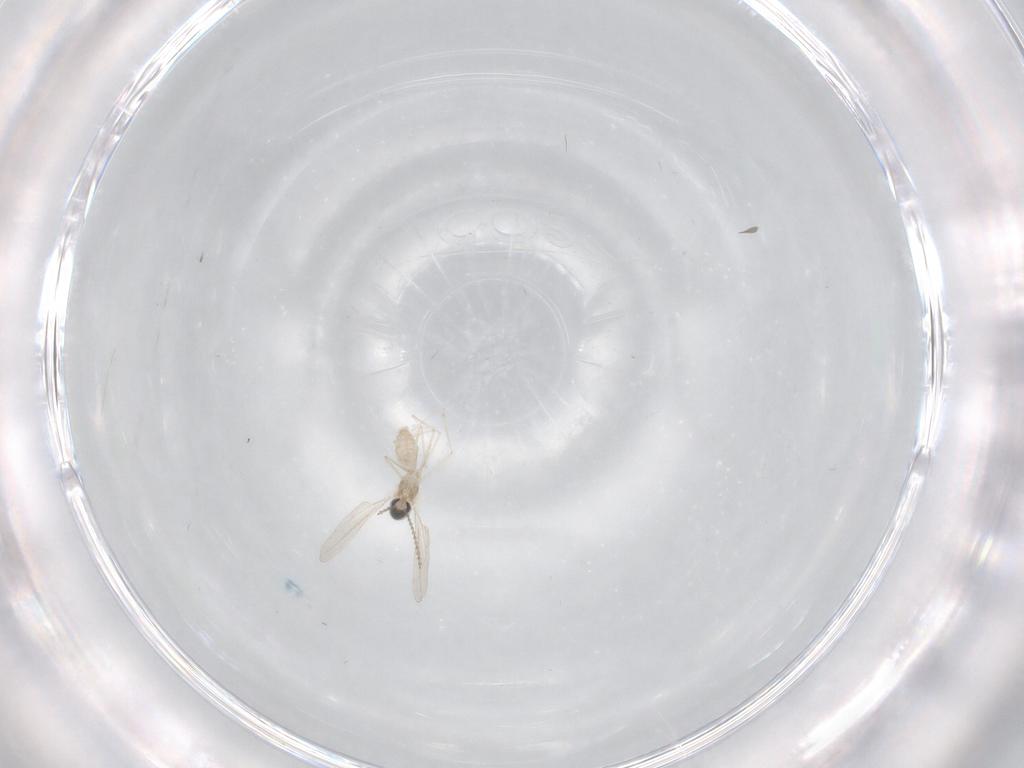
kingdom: Animalia
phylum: Arthropoda
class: Insecta
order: Diptera
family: Cecidomyiidae
